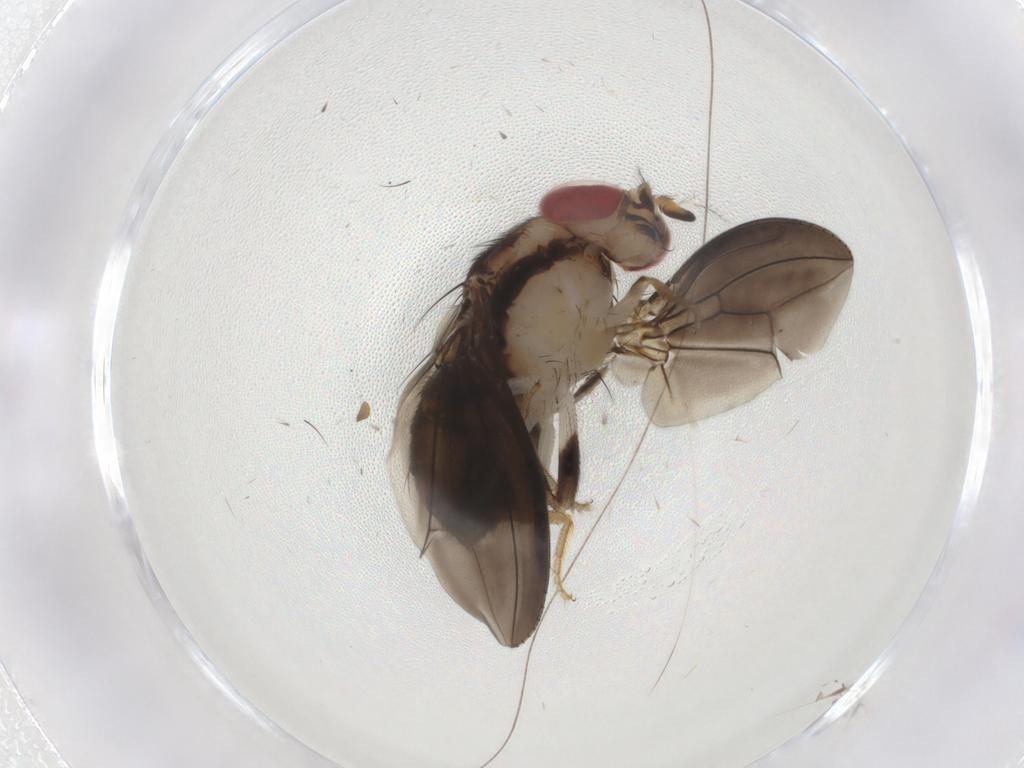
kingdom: Animalia
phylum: Arthropoda
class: Insecta
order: Diptera
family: Drosophilidae
